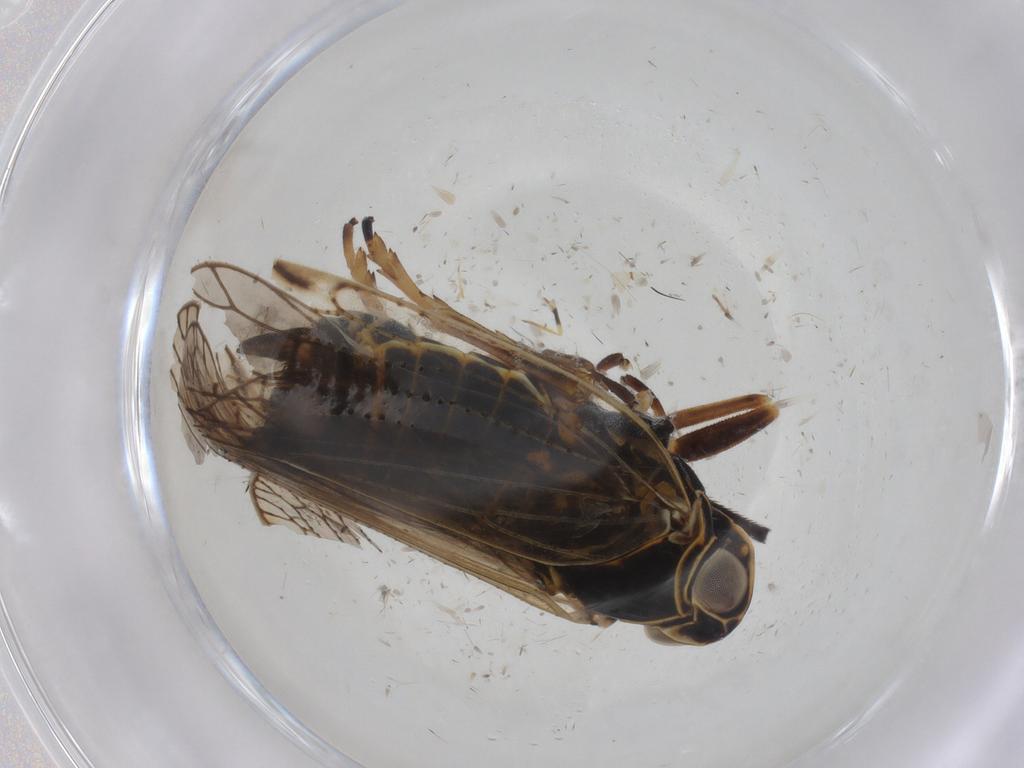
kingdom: Animalia
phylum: Arthropoda
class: Insecta
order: Hemiptera
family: Cixiidae
